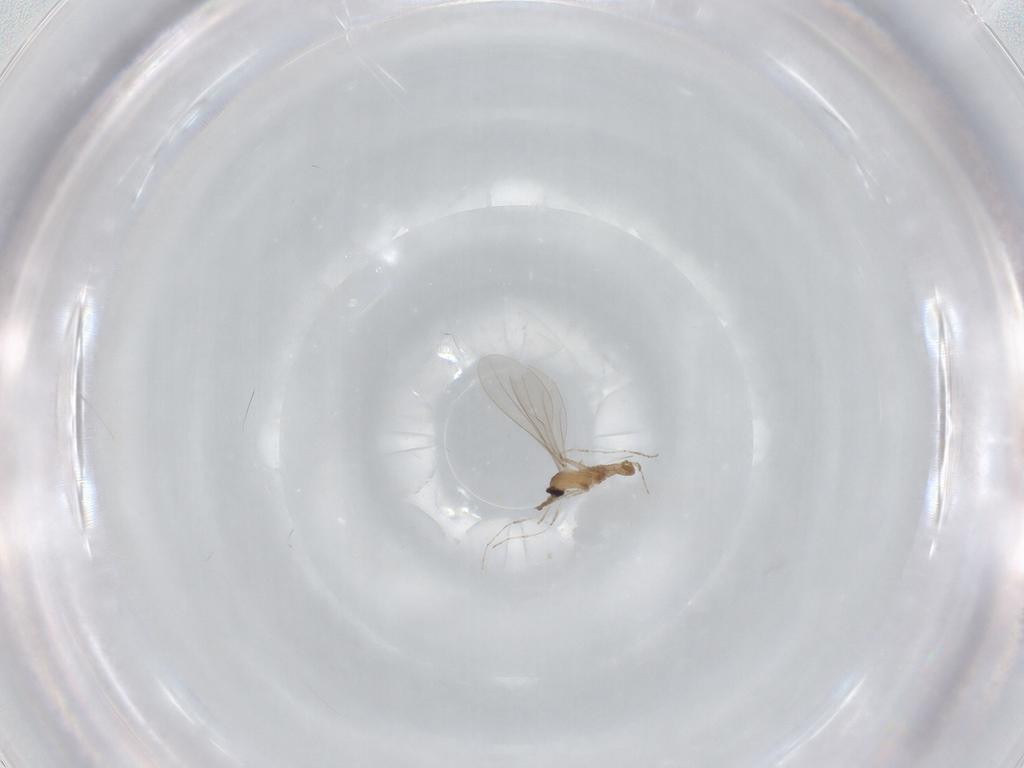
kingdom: Animalia
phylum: Arthropoda
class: Insecta
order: Diptera
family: Cecidomyiidae
